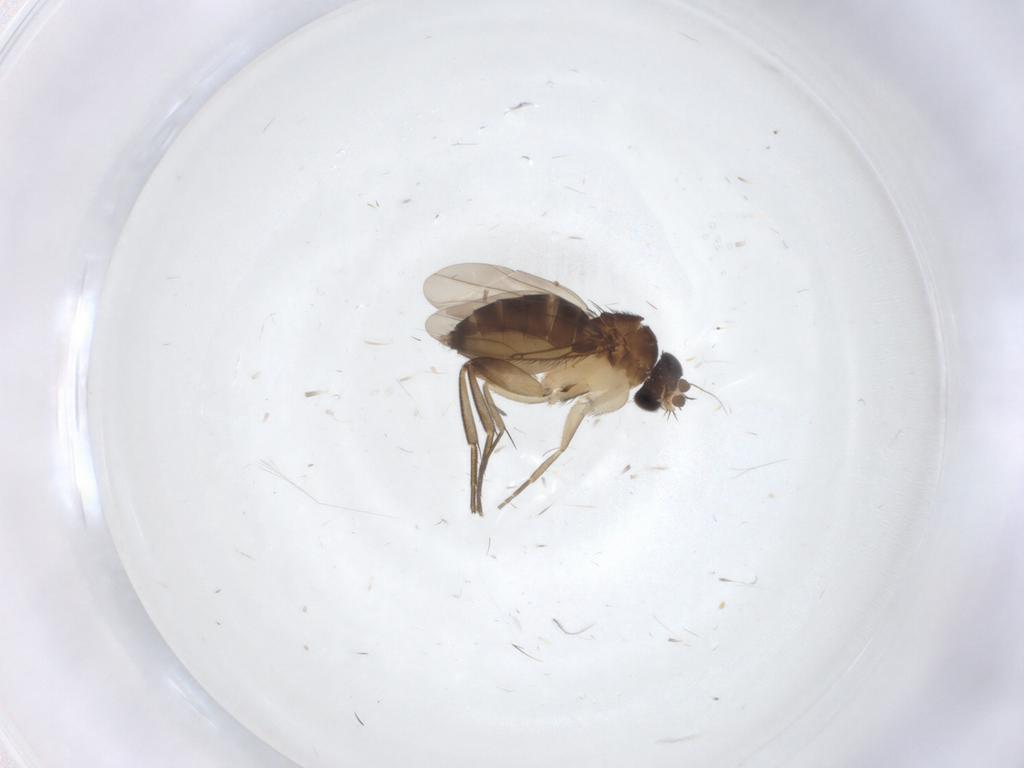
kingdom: Animalia
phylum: Arthropoda
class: Insecta
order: Diptera
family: Phoridae
